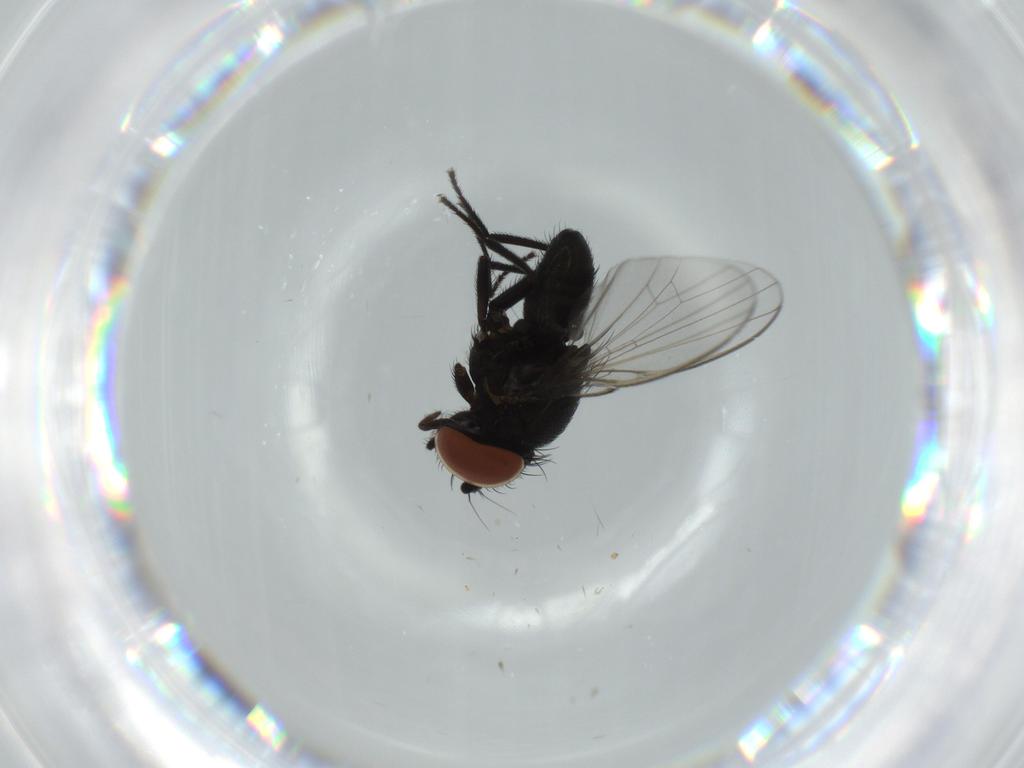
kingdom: Animalia
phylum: Arthropoda
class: Insecta
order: Diptera
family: Milichiidae
